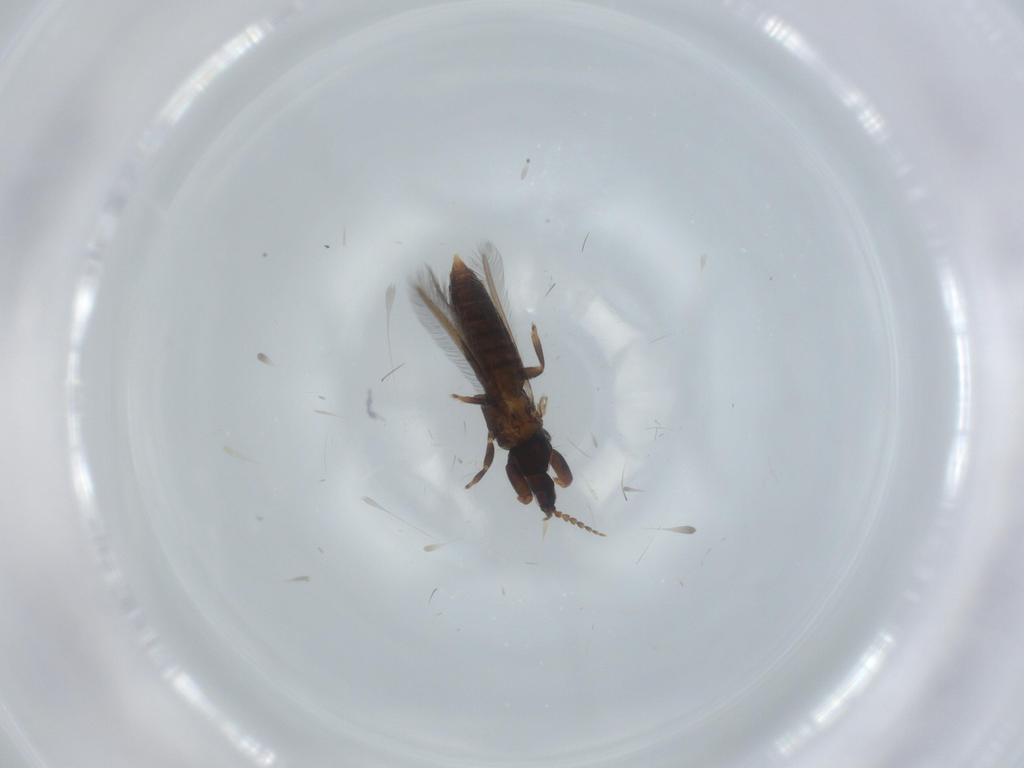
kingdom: Animalia
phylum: Arthropoda
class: Insecta
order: Thysanoptera
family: Phlaeothripidae
